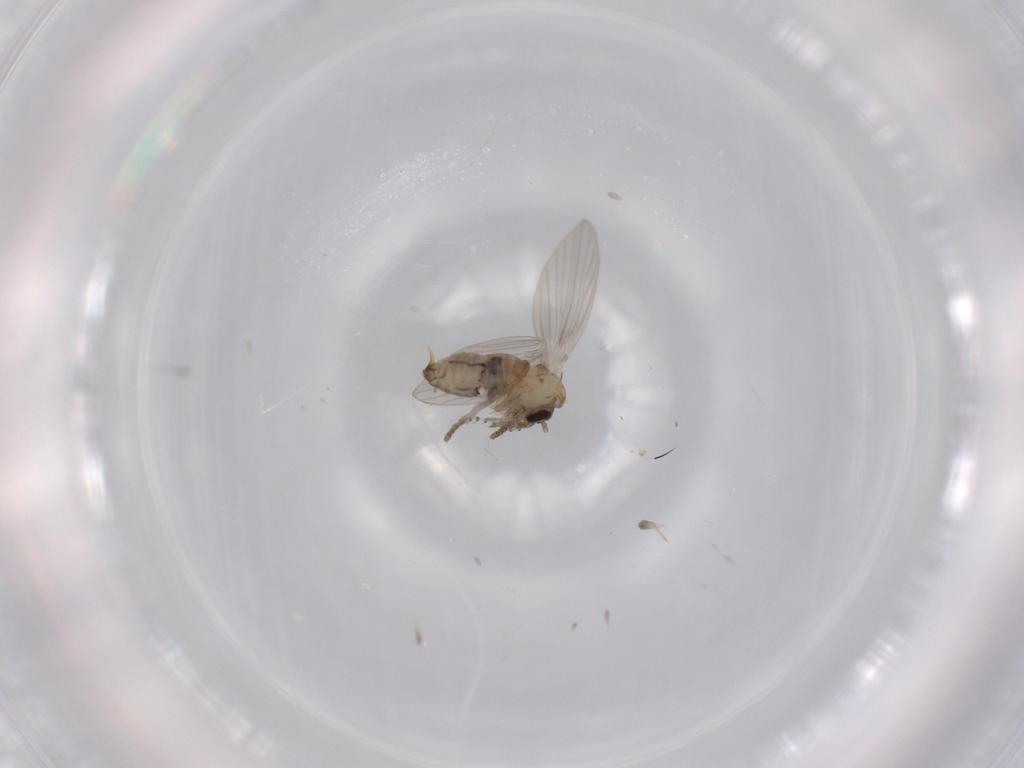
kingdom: Animalia
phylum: Arthropoda
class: Insecta
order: Diptera
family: Psychodidae
